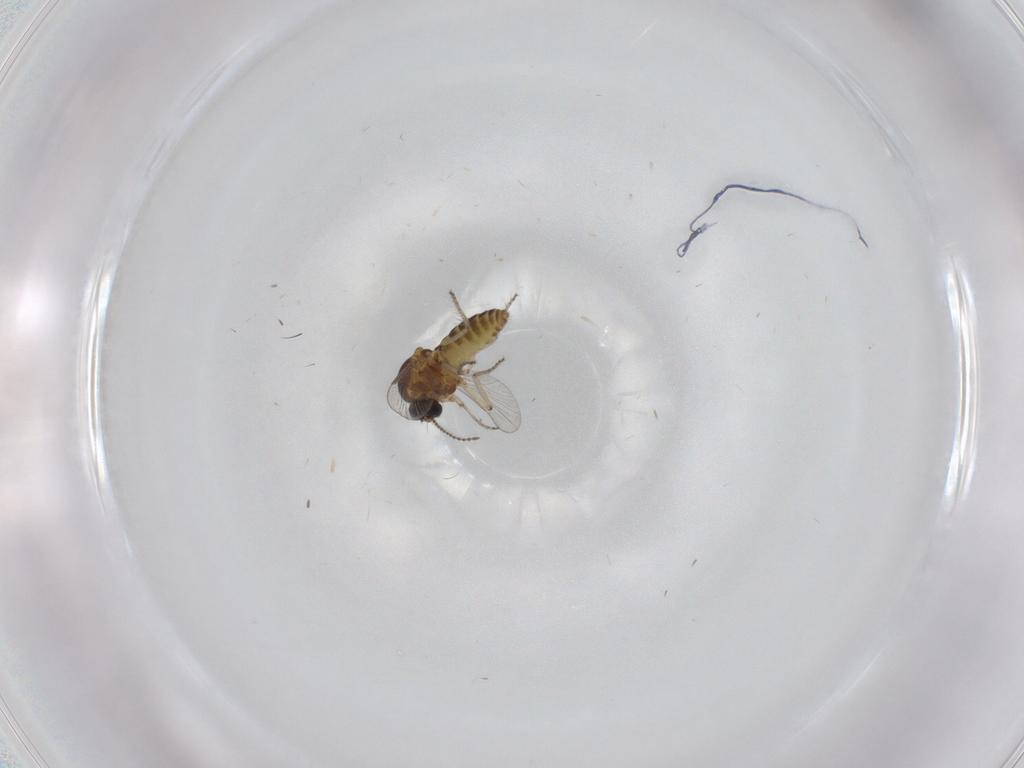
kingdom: Animalia
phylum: Arthropoda
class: Insecta
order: Diptera
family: Ceratopogonidae
